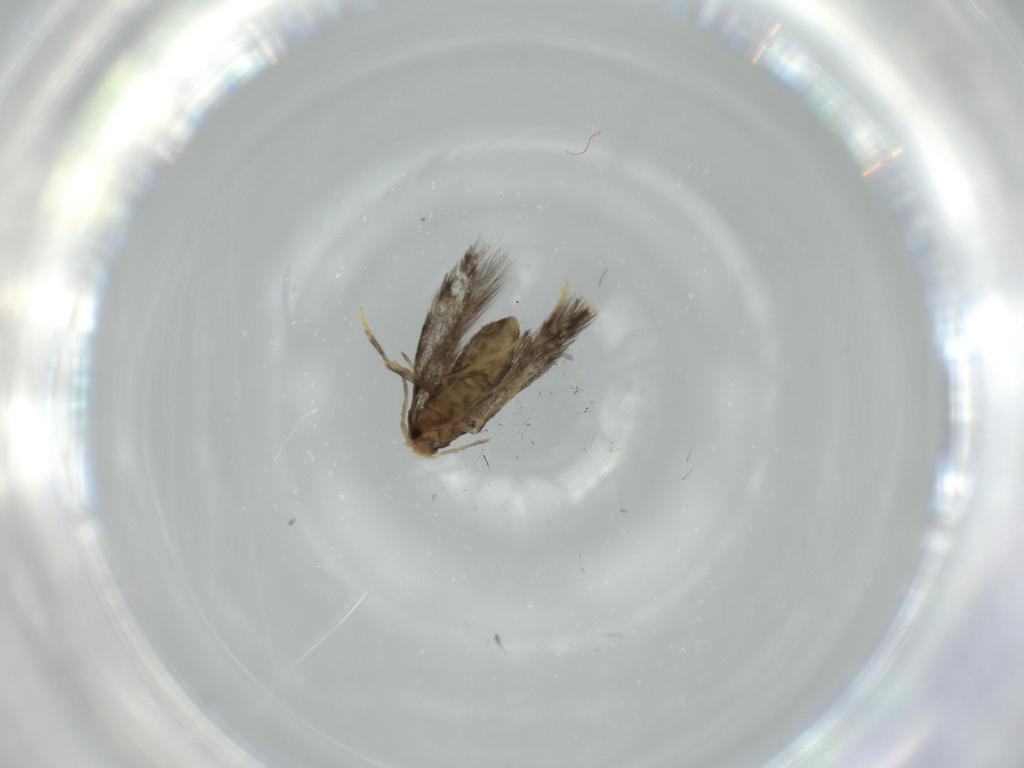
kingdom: Animalia
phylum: Arthropoda
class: Insecta
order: Lepidoptera
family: Nepticulidae
